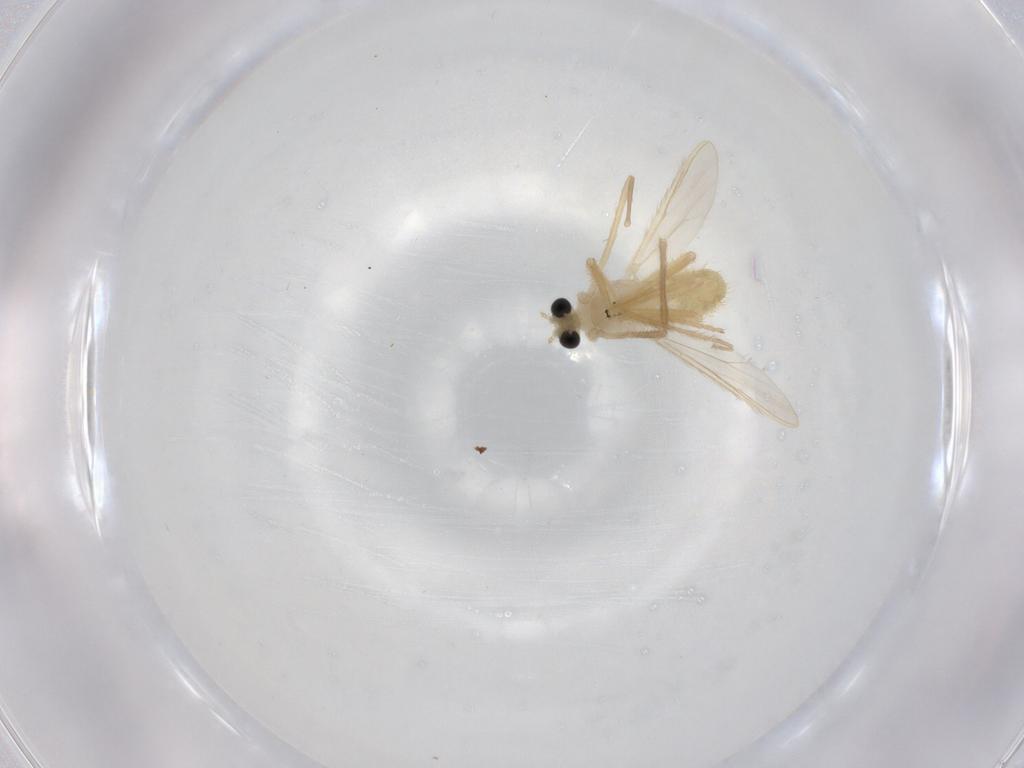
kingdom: Animalia
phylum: Arthropoda
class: Insecta
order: Diptera
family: Chironomidae
